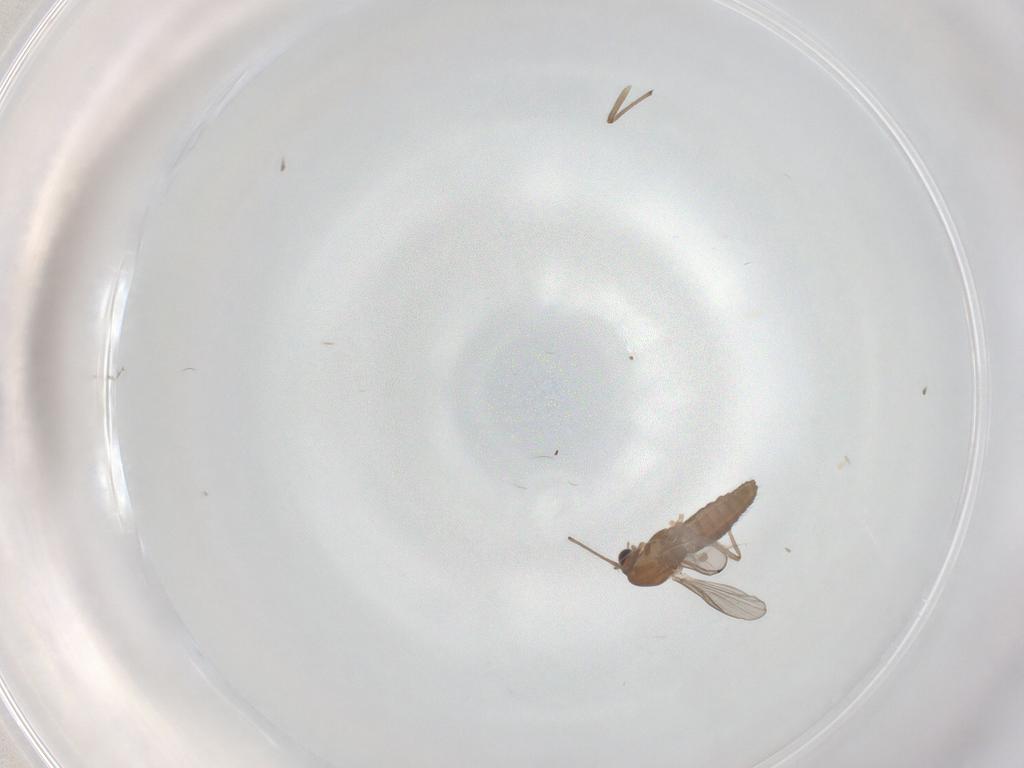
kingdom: Animalia
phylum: Arthropoda
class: Insecta
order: Diptera
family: Chironomidae
